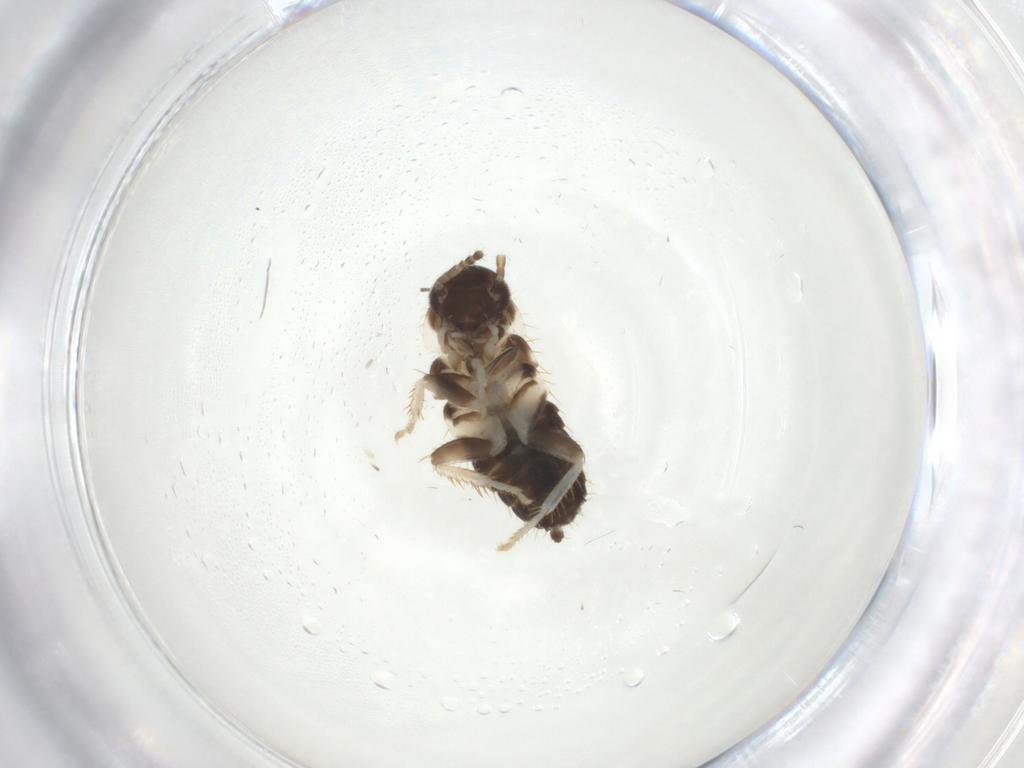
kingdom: Animalia
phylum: Arthropoda
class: Insecta
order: Blattodea
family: Ectobiidae
